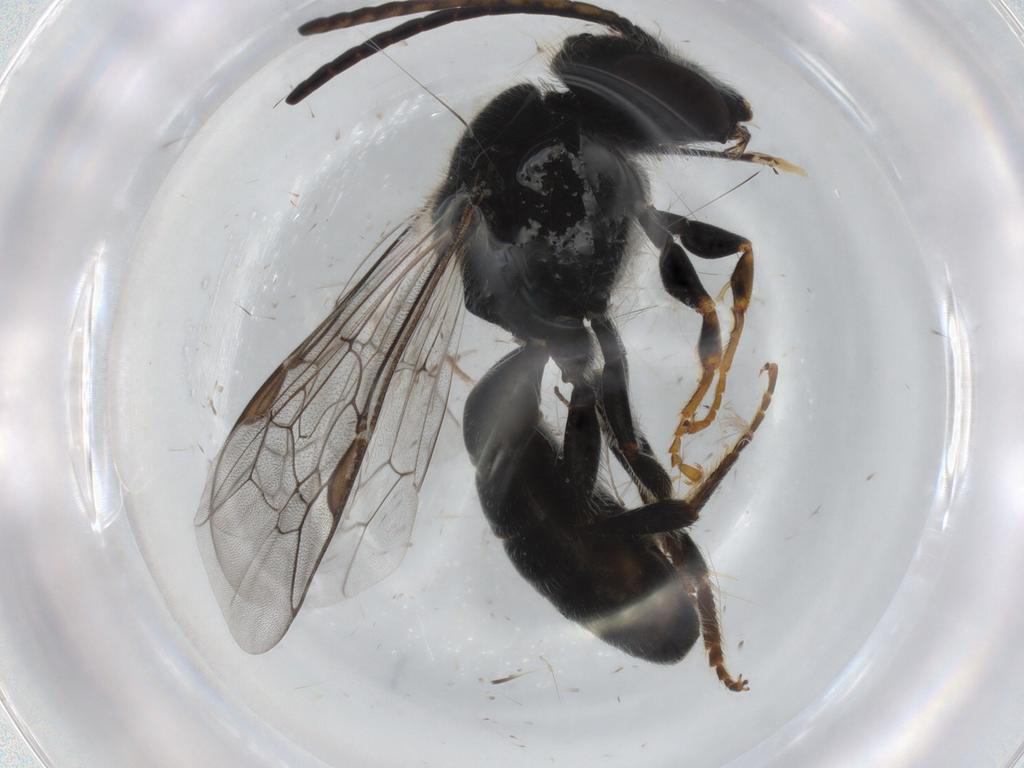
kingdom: Animalia
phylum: Arthropoda
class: Insecta
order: Hymenoptera
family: Halictidae
